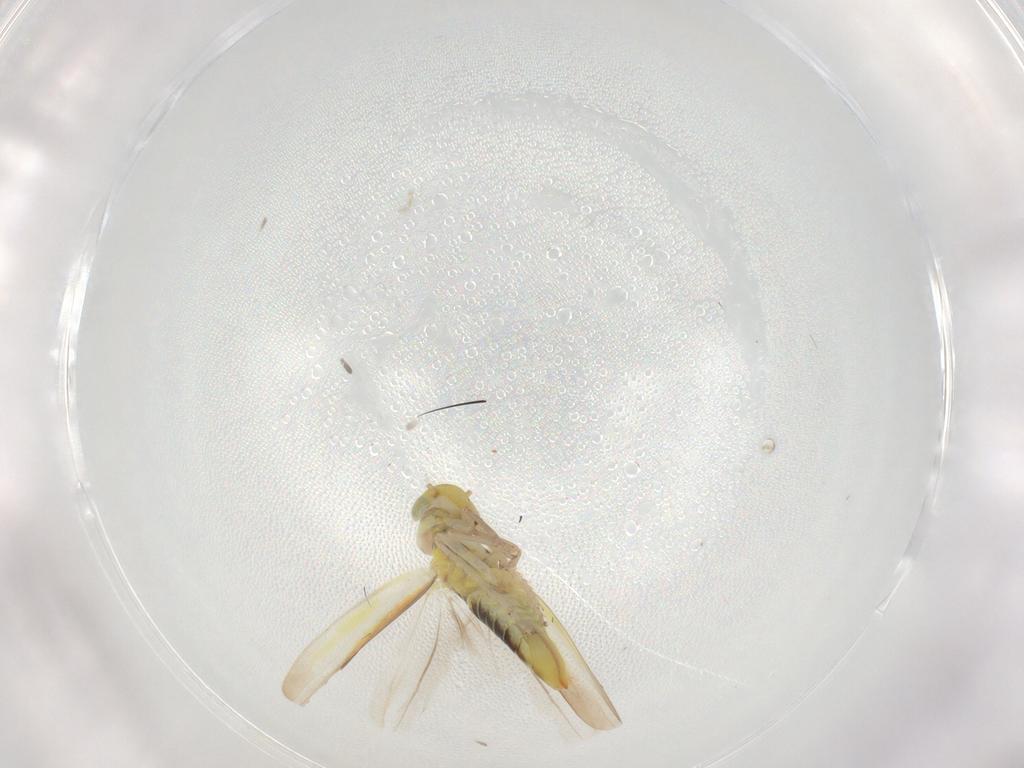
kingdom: Animalia
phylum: Arthropoda
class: Insecta
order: Hemiptera
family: Cicadellidae
